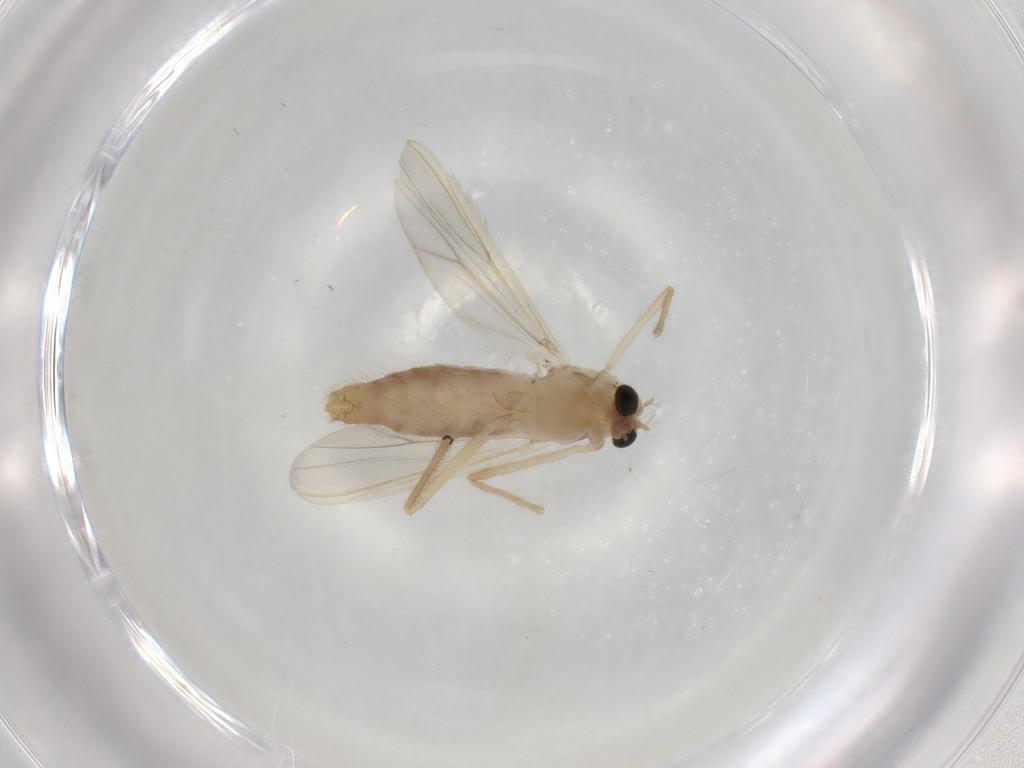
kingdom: Animalia
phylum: Arthropoda
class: Insecta
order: Diptera
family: Chironomidae
